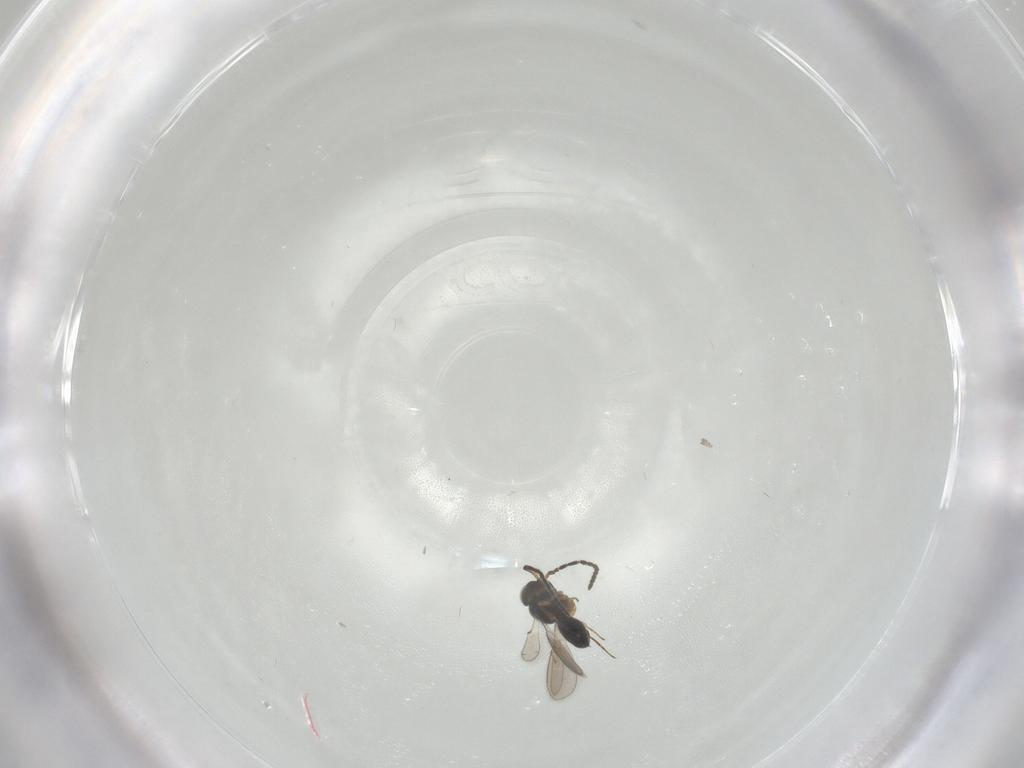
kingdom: Animalia
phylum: Arthropoda
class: Insecta
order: Hymenoptera
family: Scelionidae
